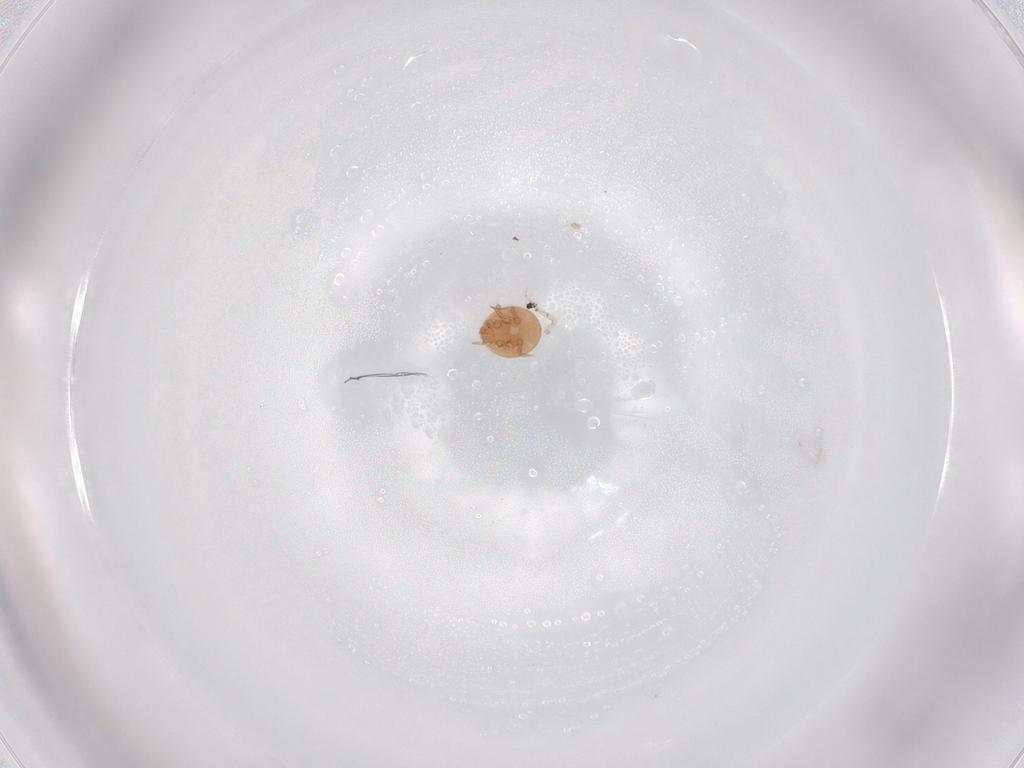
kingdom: Animalia
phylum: Arthropoda
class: Arachnida
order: Mesostigmata
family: Trematuridae
